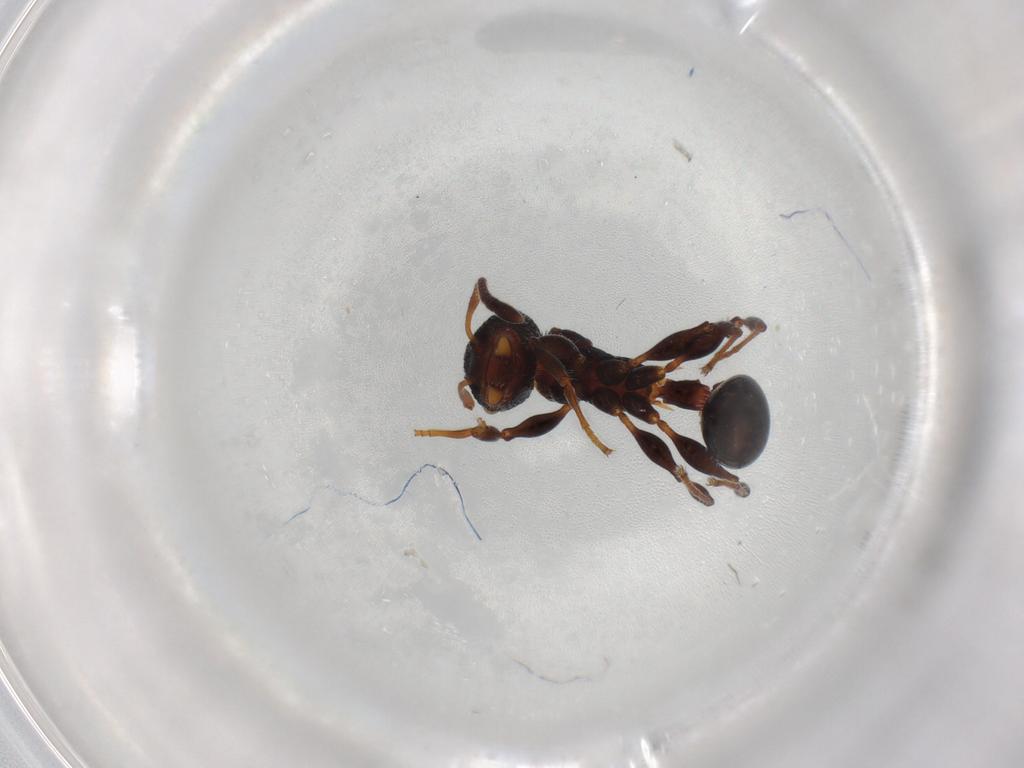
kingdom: Animalia
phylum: Arthropoda
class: Insecta
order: Hymenoptera
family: Formicidae
